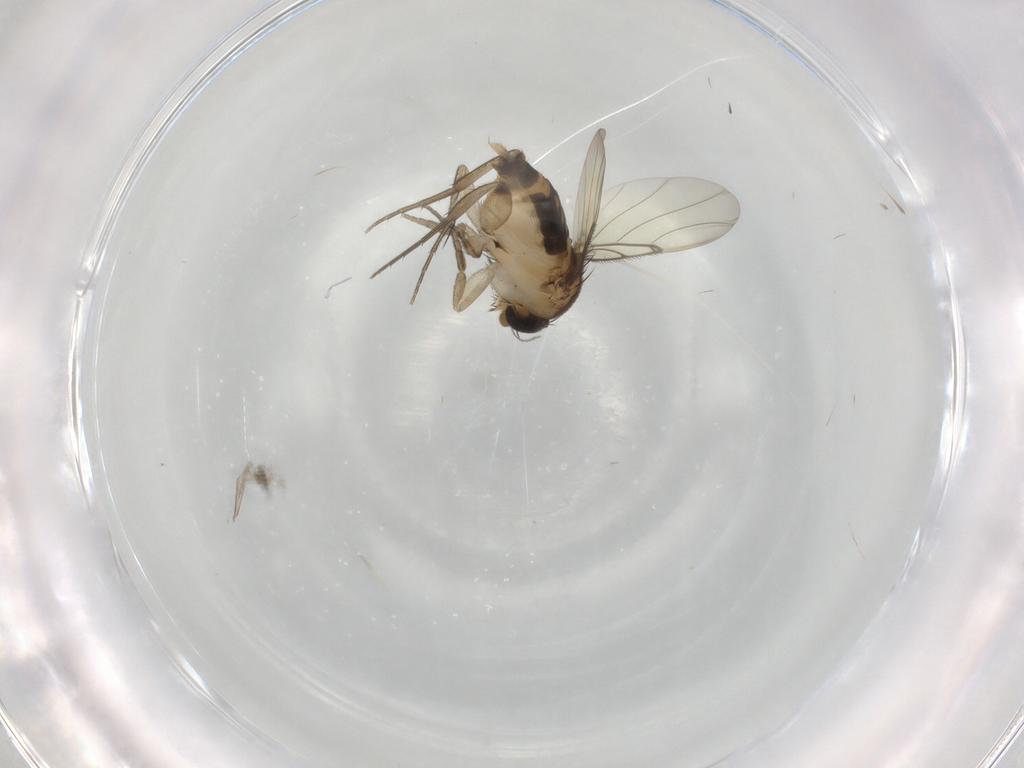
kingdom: Animalia
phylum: Arthropoda
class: Insecta
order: Diptera
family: Phoridae
